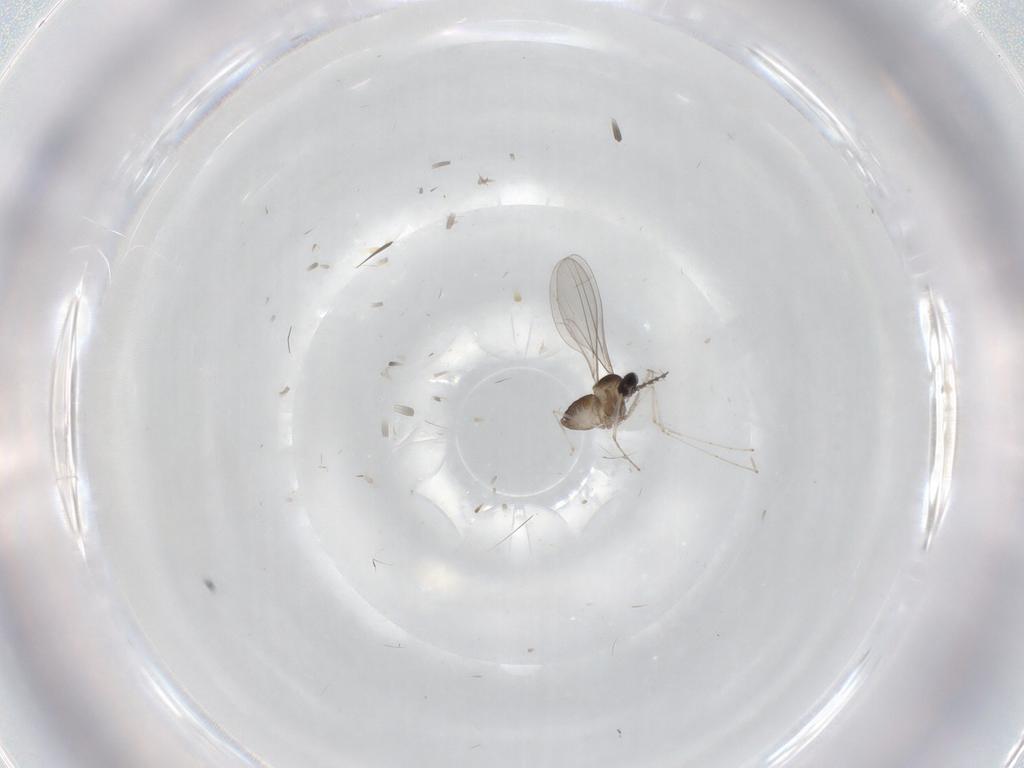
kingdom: Animalia
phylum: Arthropoda
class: Insecta
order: Diptera
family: Cecidomyiidae
